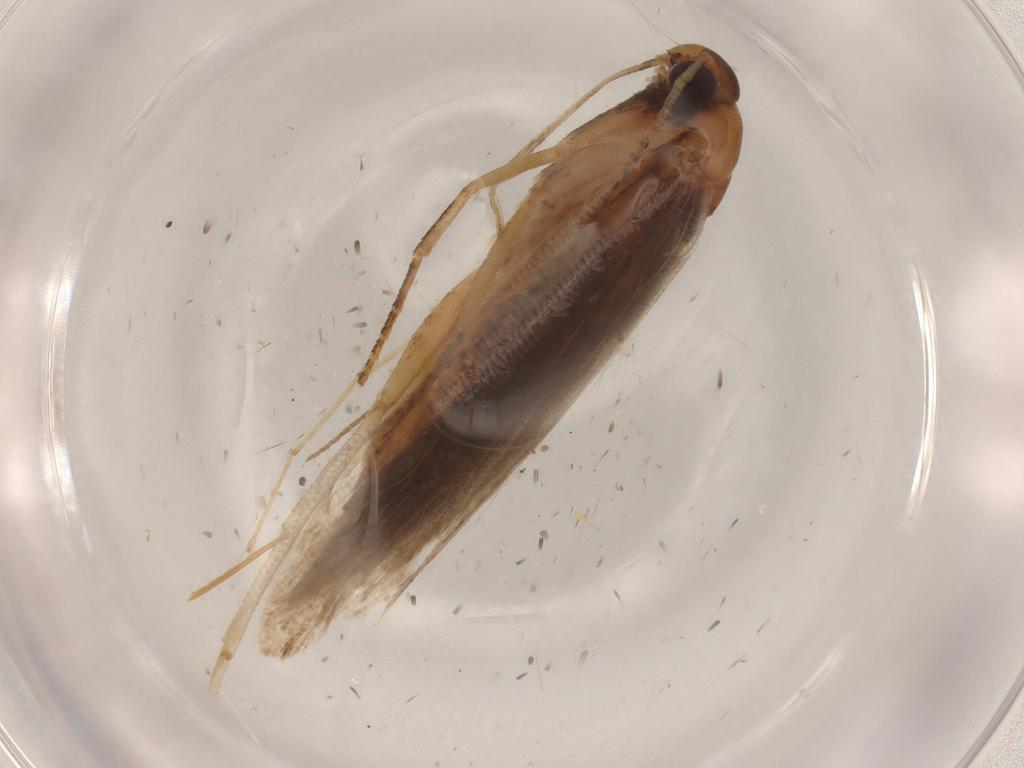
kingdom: Animalia
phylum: Arthropoda
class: Insecta
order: Lepidoptera
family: Gelechiidae
